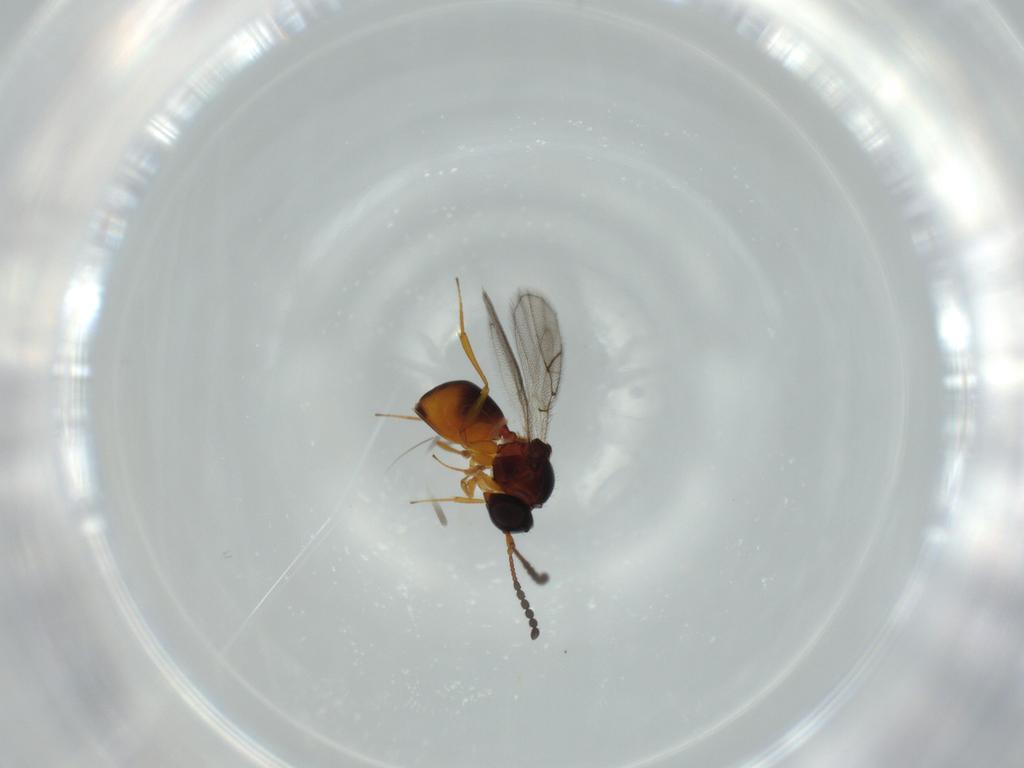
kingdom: Animalia
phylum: Arthropoda
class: Insecta
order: Hymenoptera
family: Figitidae
